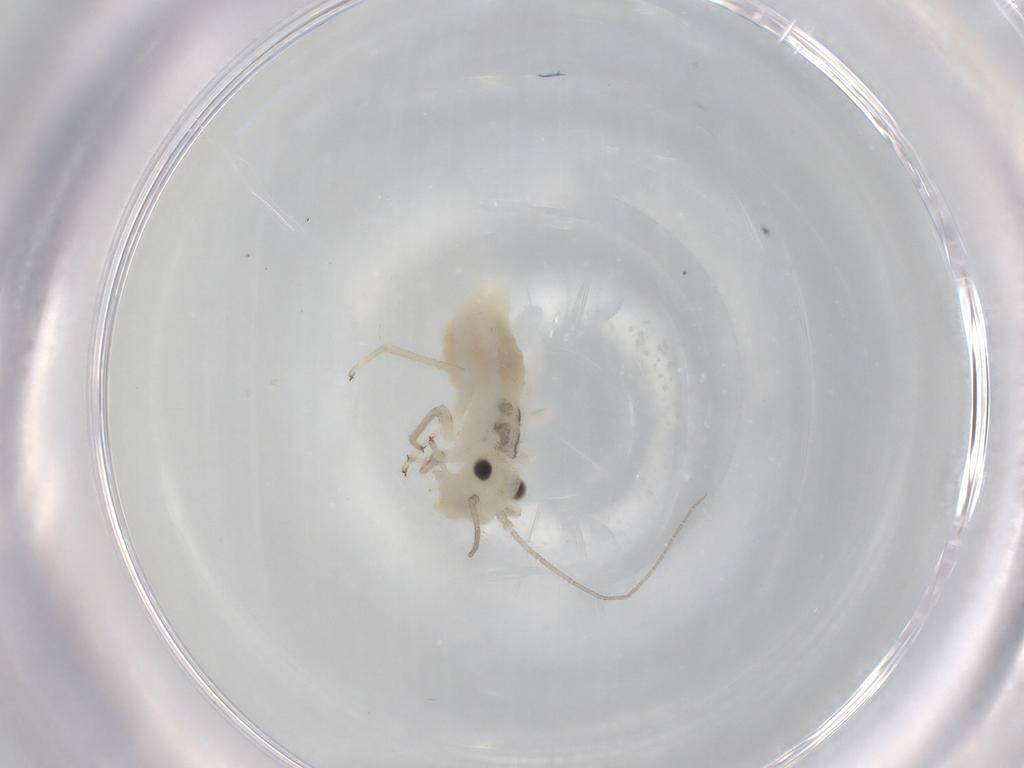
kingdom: Animalia
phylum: Arthropoda
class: Insecta
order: Psocodea
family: Caeciliusidae
